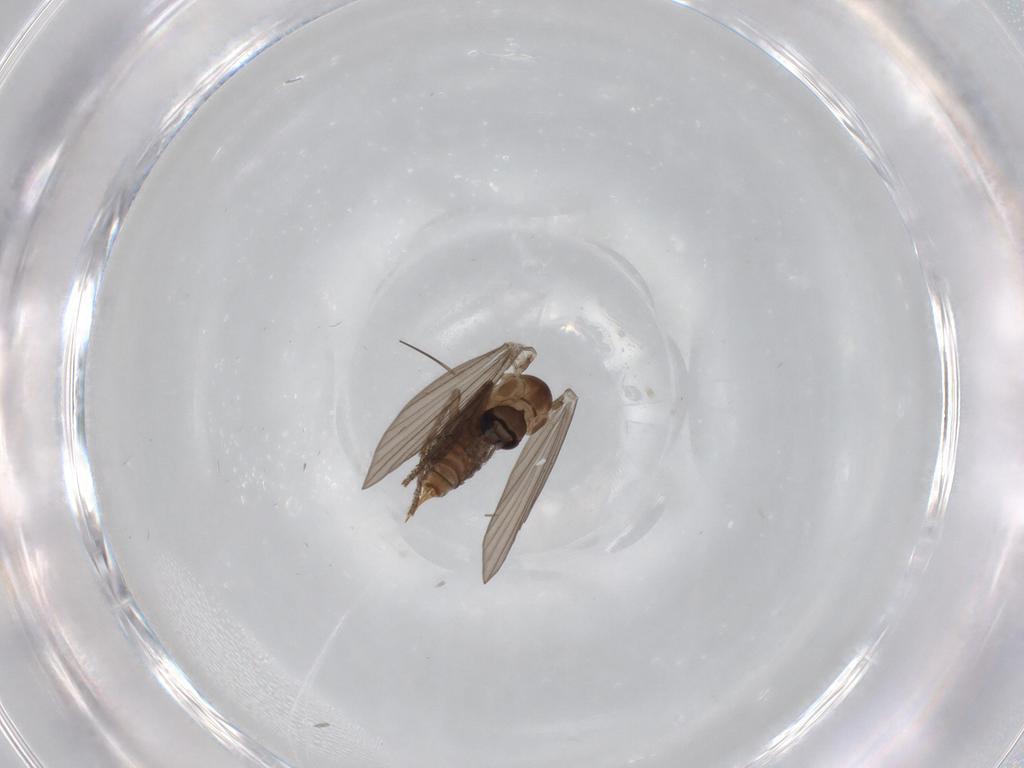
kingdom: Animalia
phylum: Arthropoda
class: Insecta
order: Diptera
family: Psychodidae
